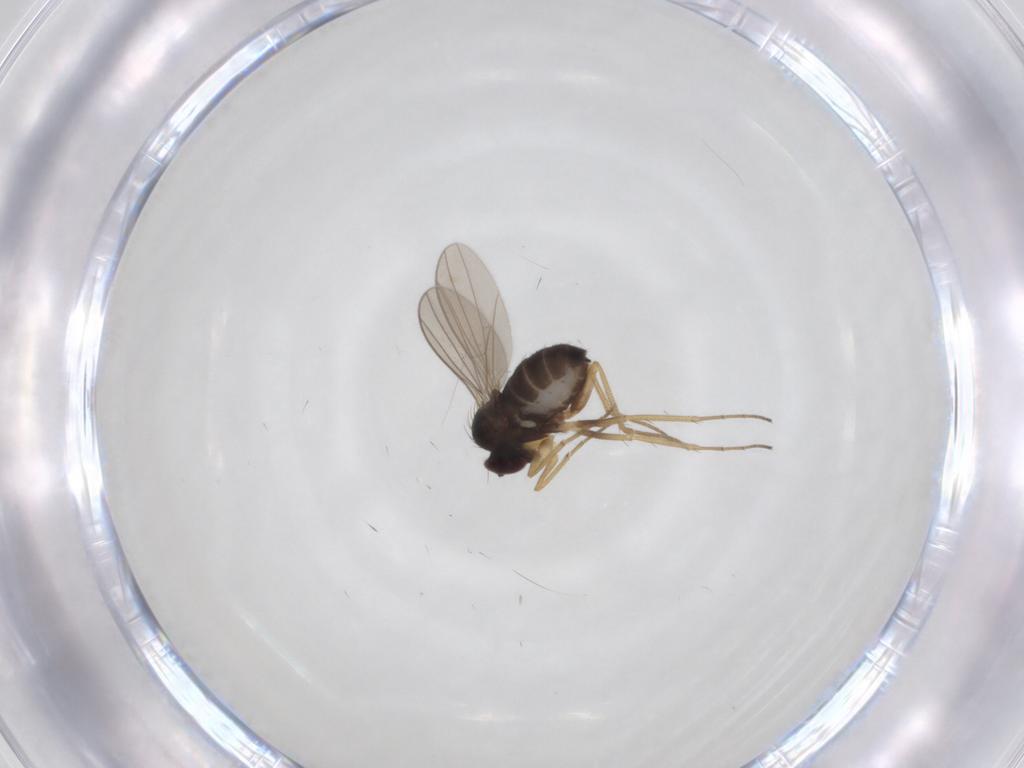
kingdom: Animalia
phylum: Arthropoda
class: Insecta
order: Diptera
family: Dolichopodidae
